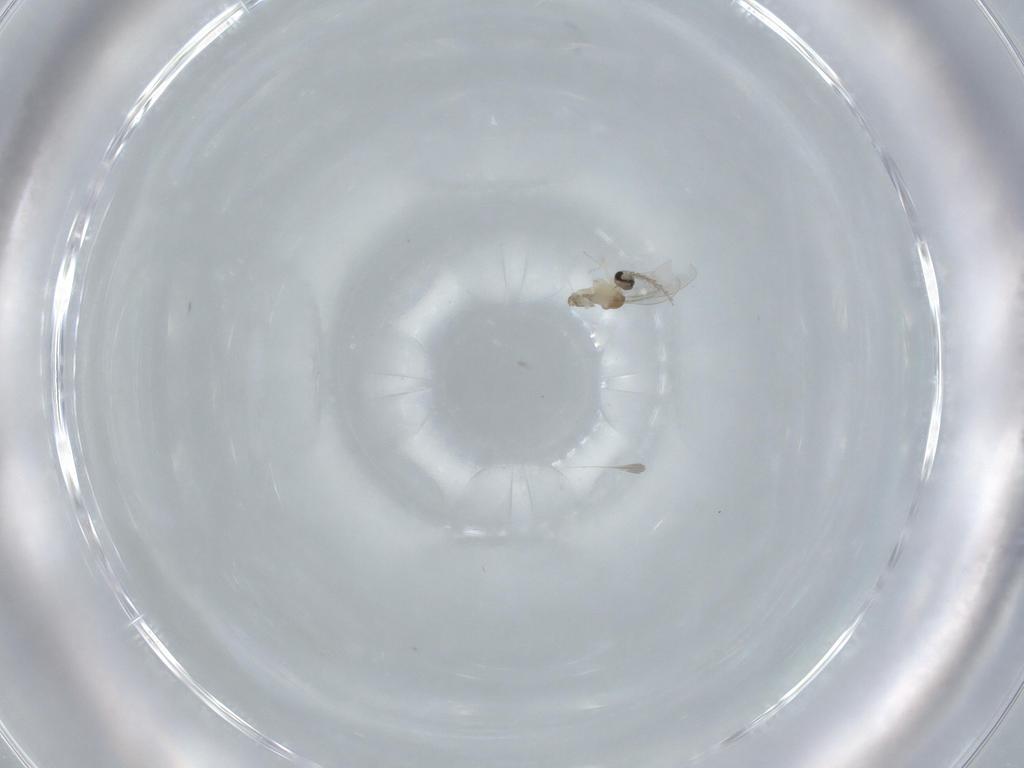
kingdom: Animalia
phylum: Arthropoda
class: Insecta
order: Diptera
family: Cecidomyiidae
